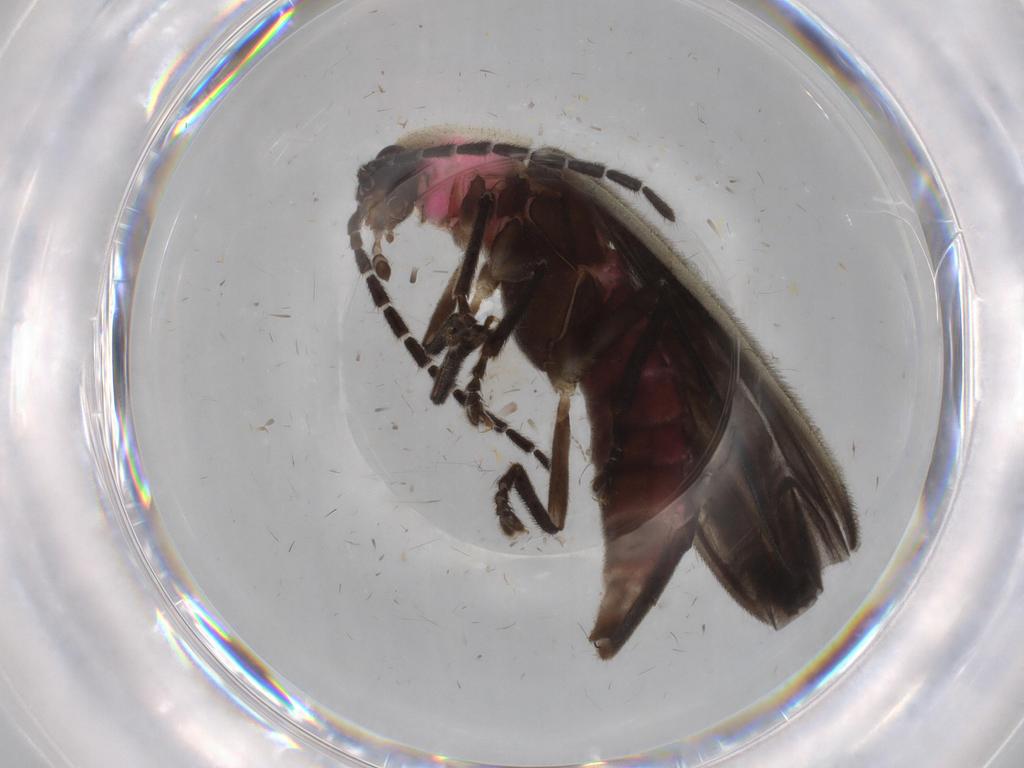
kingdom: Animalia
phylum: Arthropoda
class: Insecta
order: Coleoptera
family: Lampyridae
